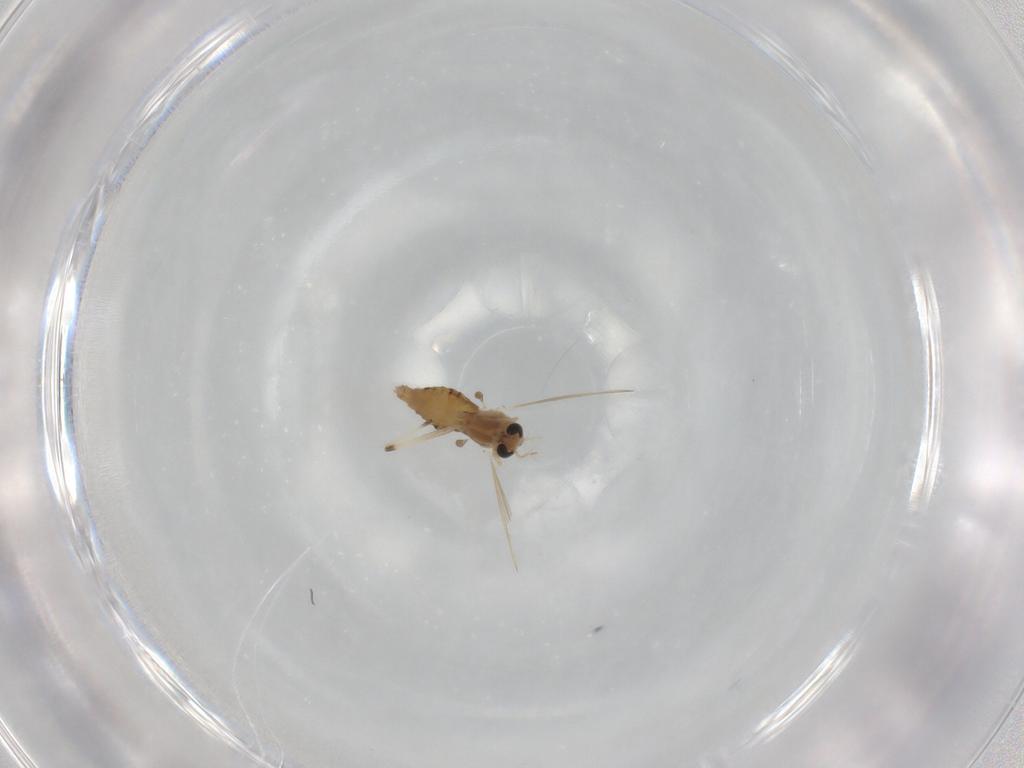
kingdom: Animalia
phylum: Arthropoda
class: Insecta
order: Diptera
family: Chironomidae
